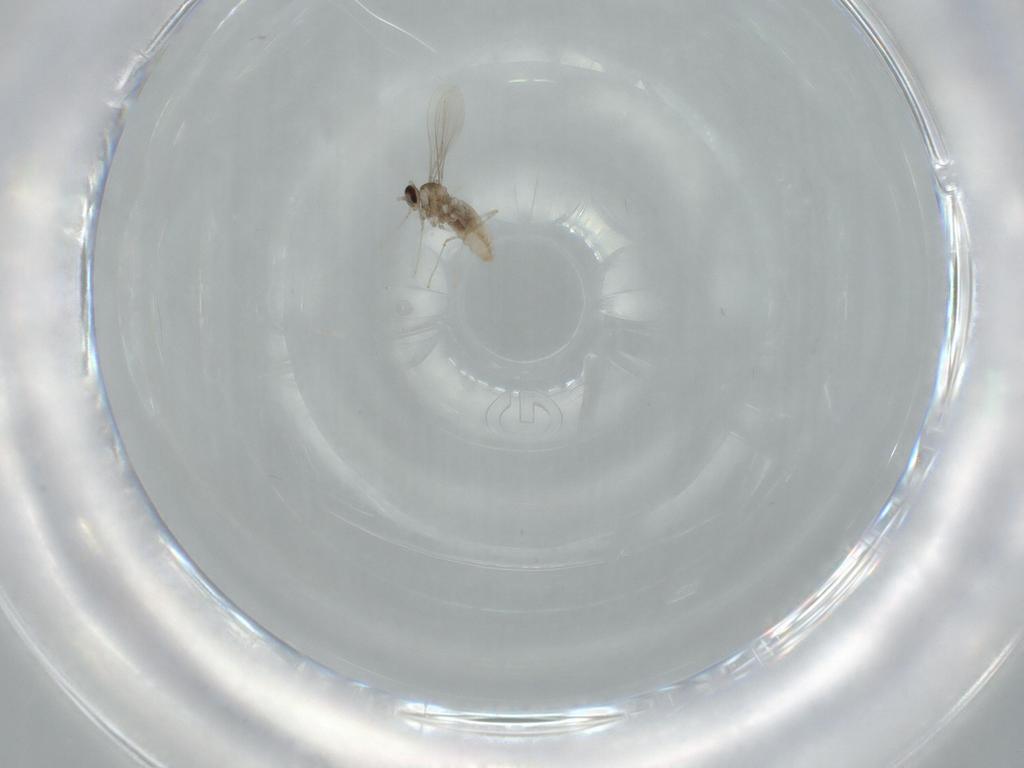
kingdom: Animalia
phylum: Arthropoda
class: Insecta
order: Diptera
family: Cecidomyiidae
